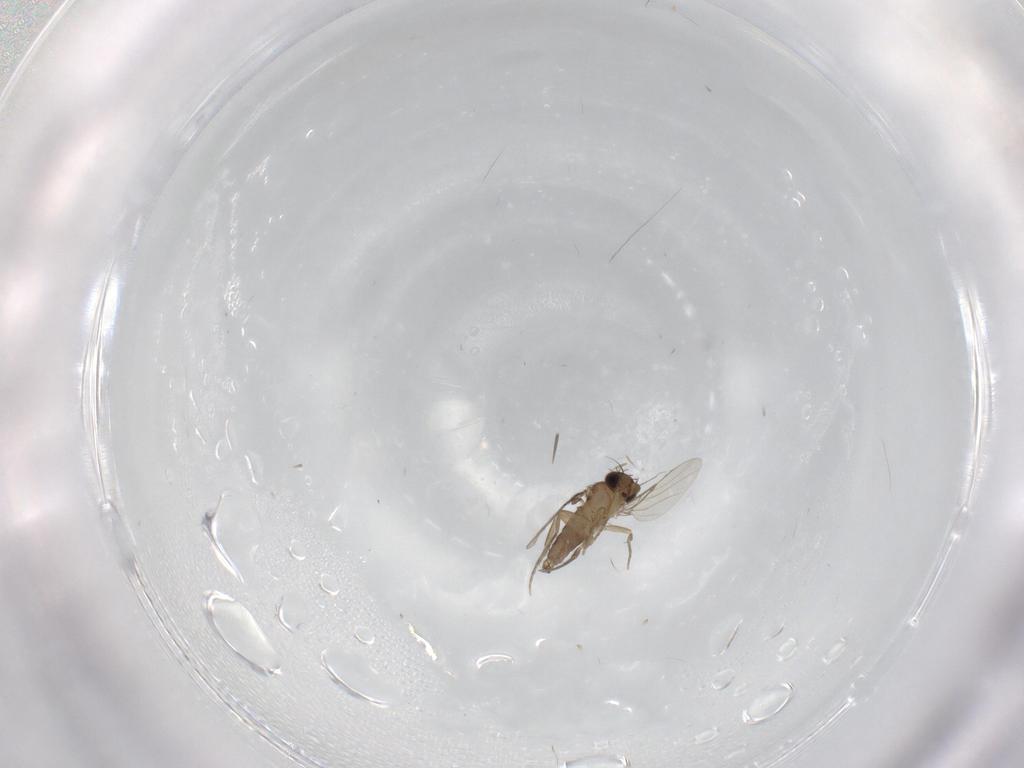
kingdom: Animalia
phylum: Arthropoda
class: Insecta
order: Diptera
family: Phoridae
